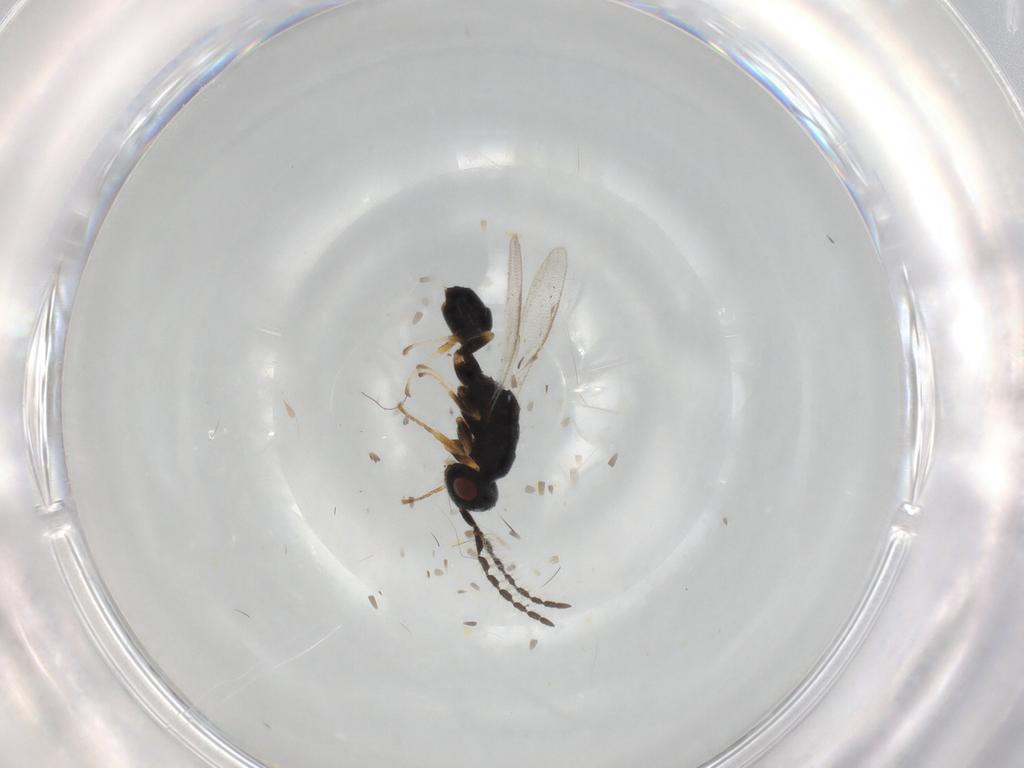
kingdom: Animalia
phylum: Arthropoda
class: Insecta
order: Hymenoptera
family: Eurytomidae
